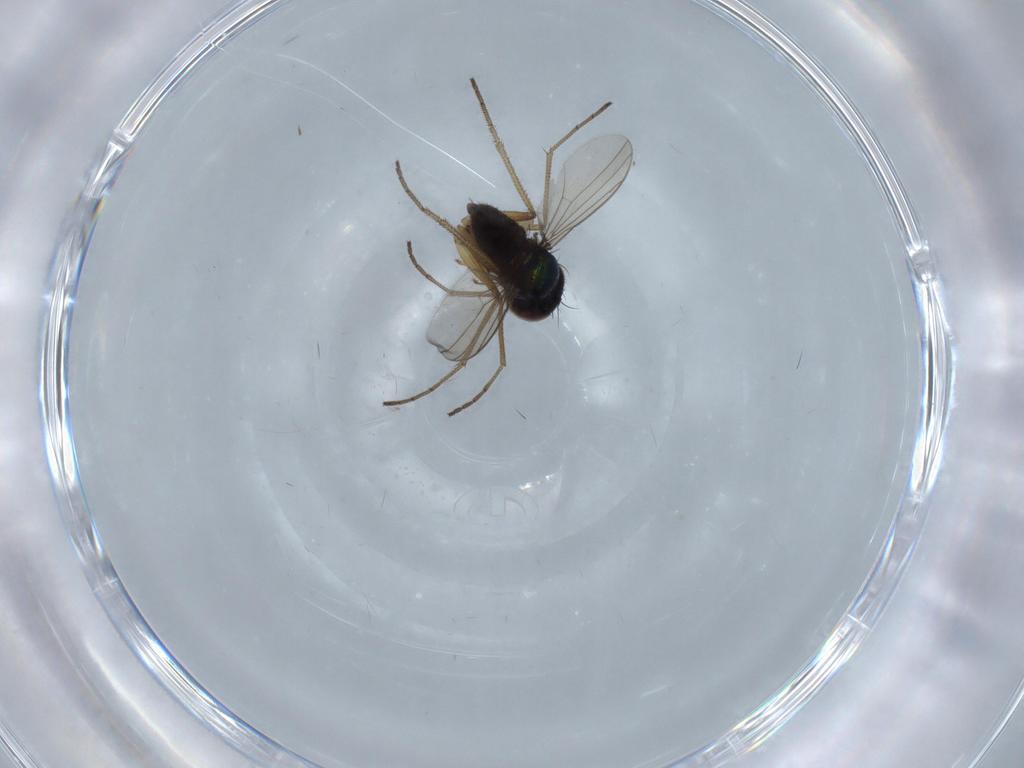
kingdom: Animalia
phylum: Arthropoda
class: Insecta
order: Diptera
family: Dolichopodidae
